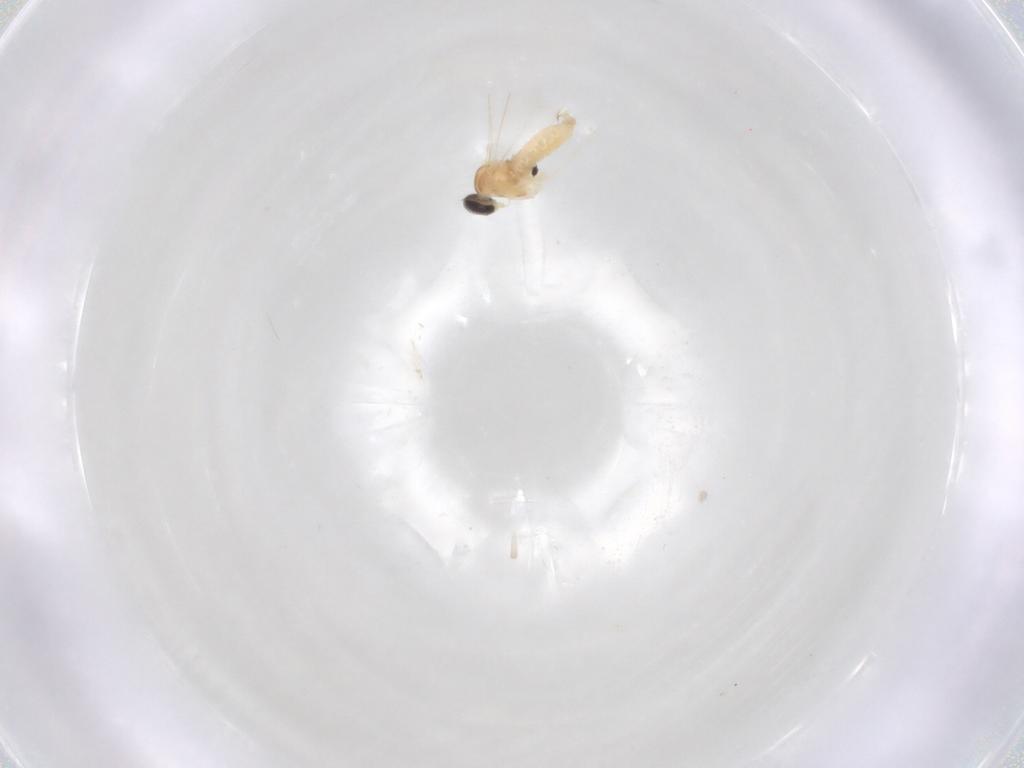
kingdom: Animalia
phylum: Arthropoda
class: Insecta
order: Diptera
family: Cecidomyiidae
